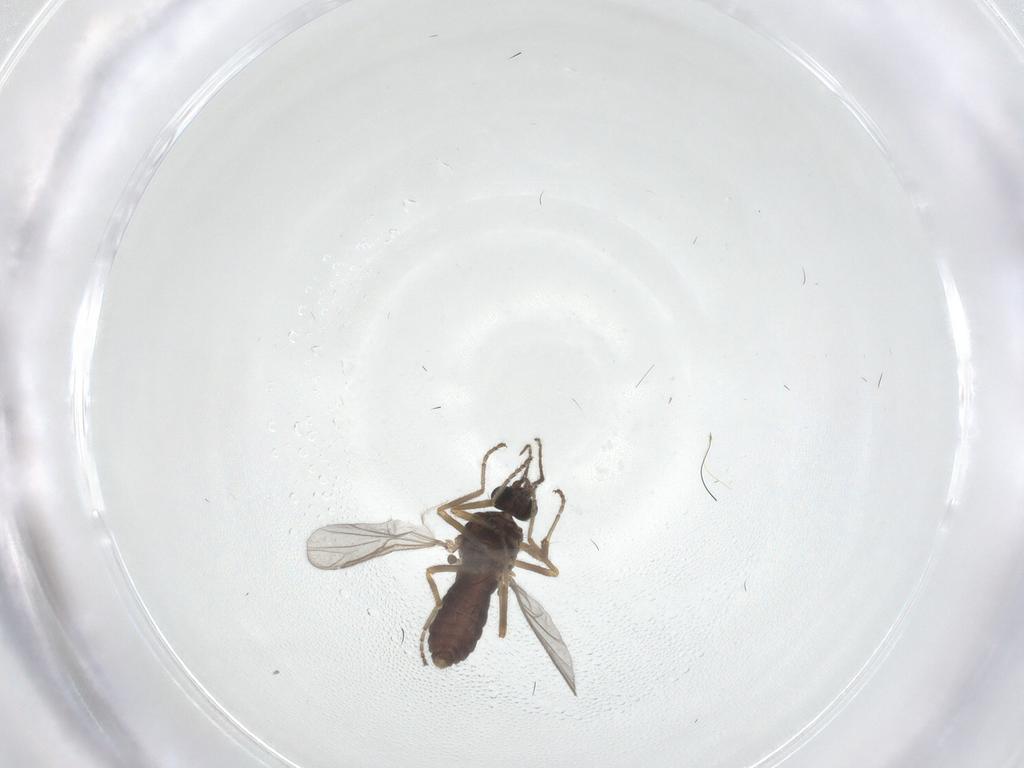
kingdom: Animalia
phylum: Arthropoda
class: Insecta
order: Diptera
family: Ceratopogonidae
